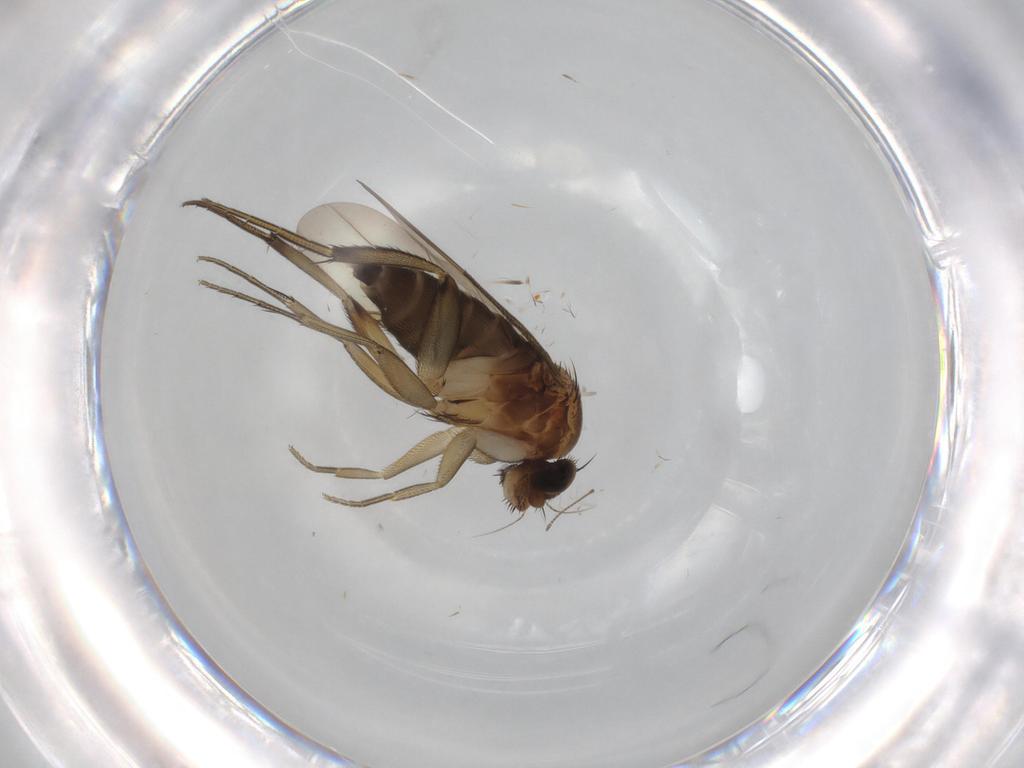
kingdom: Animalia
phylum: Arthropoda
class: Insecta
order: Diptera
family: Phoridae
